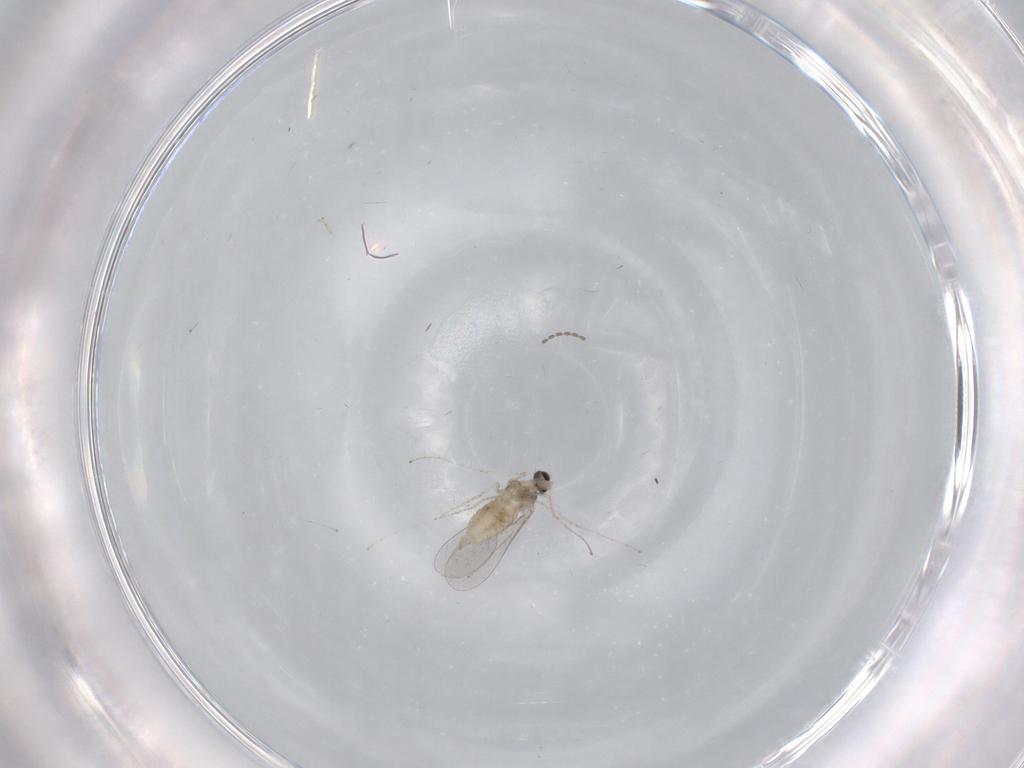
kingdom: Animalia
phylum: Arthropoda
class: Insecta
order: Diptera
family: Cecidomyiidae
